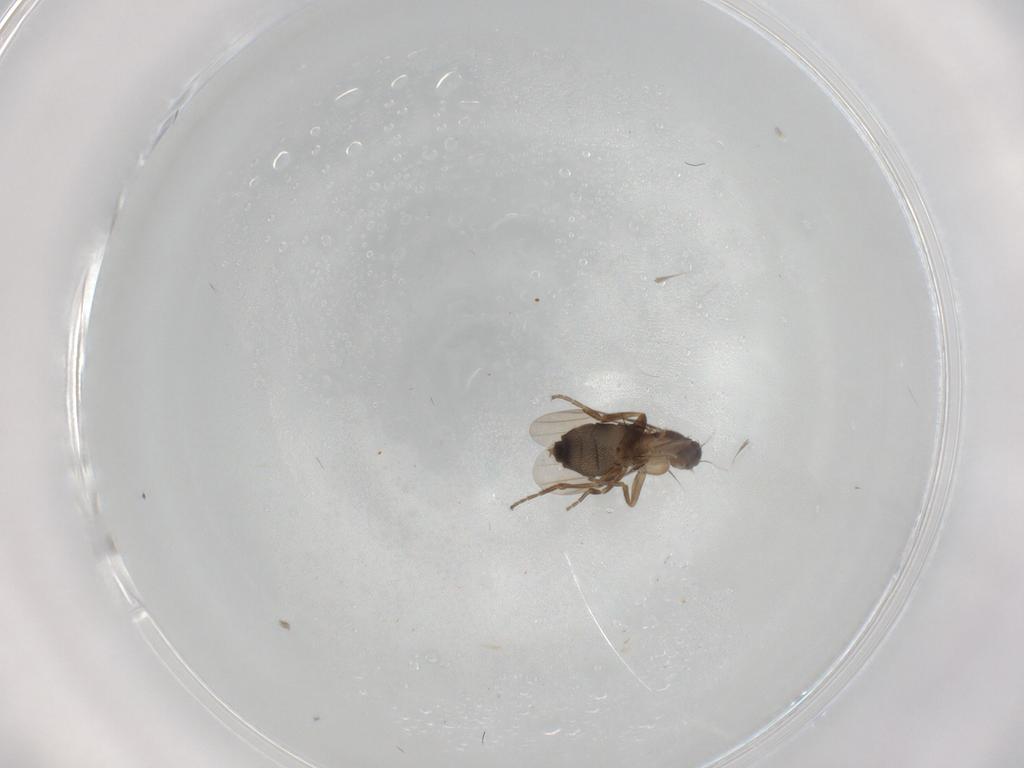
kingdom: Animalia
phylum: Arthropoda
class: Insecta
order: Diptera
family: Phoridae
